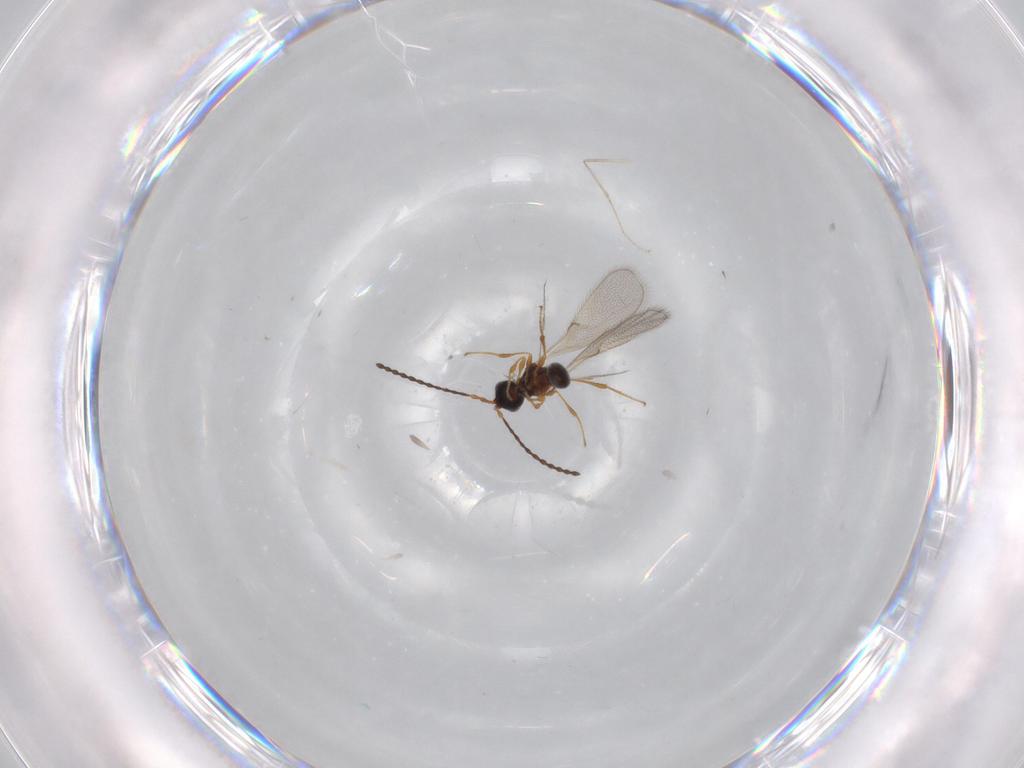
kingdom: Animalia
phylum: Arthropoda
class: Insecta
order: Hymenoptera
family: Diapriidae
